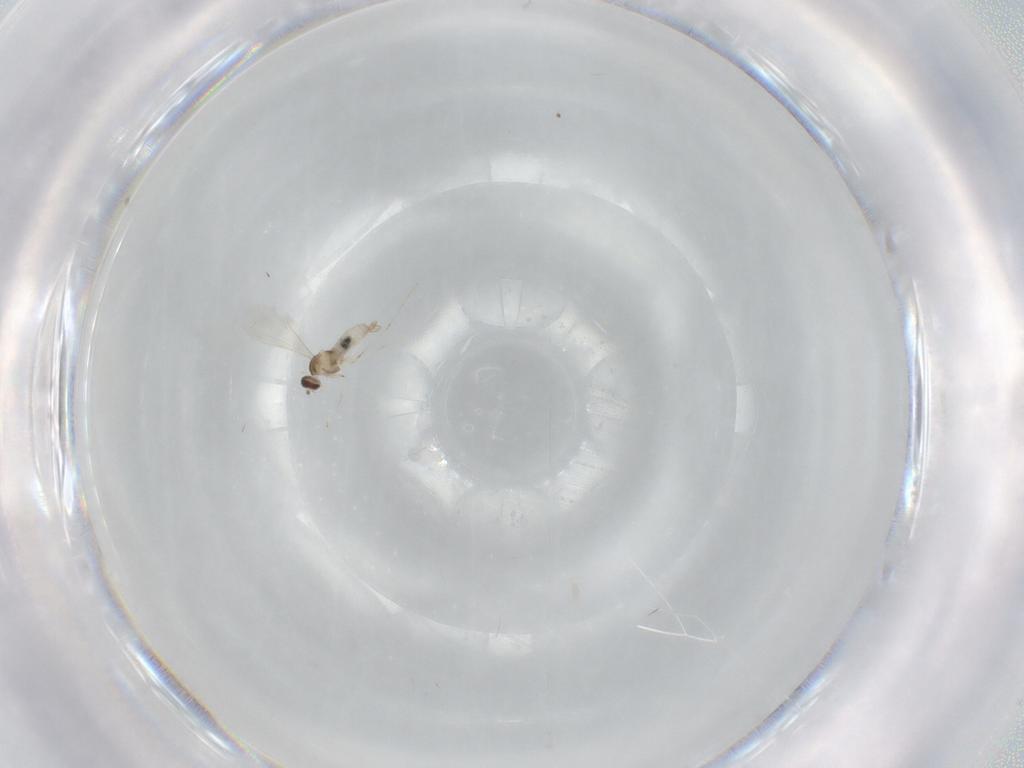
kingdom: Animalia
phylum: Arthropoda
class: Insecta
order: Diptera
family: Cecidomyiidae
